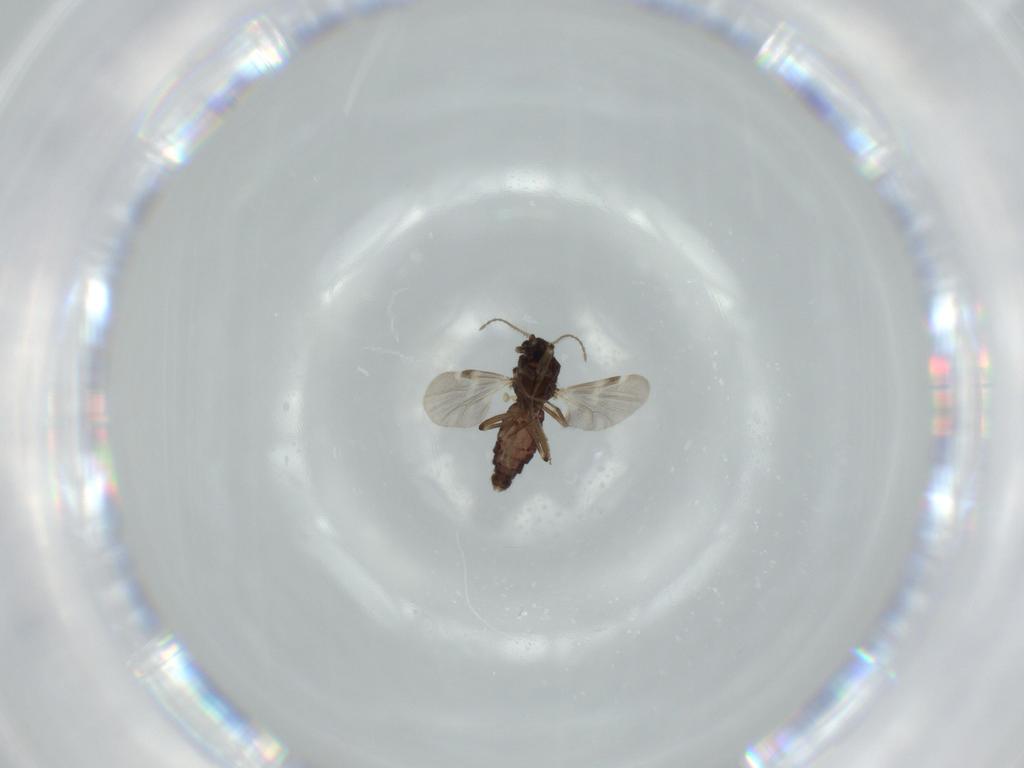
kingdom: Animalia
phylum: Arthropoda
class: Insecta
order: Diptera
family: Ceratopogonidae
